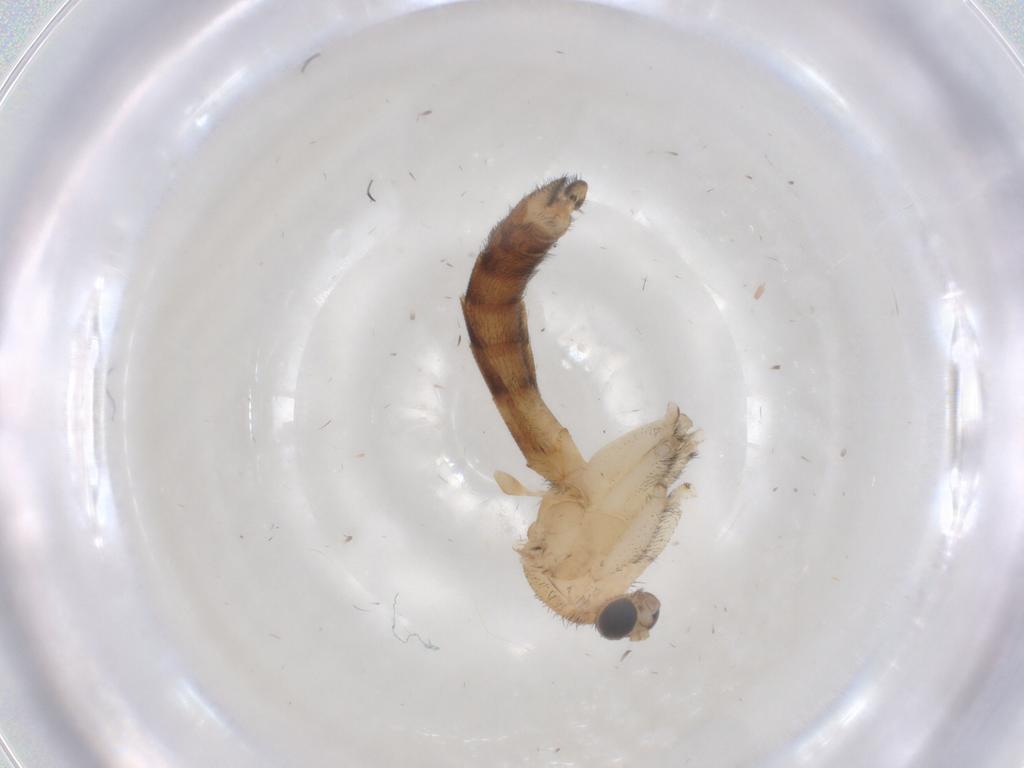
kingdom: Animalia
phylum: Arthropoda
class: Insecta
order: Diptera
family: Keroplatidae
